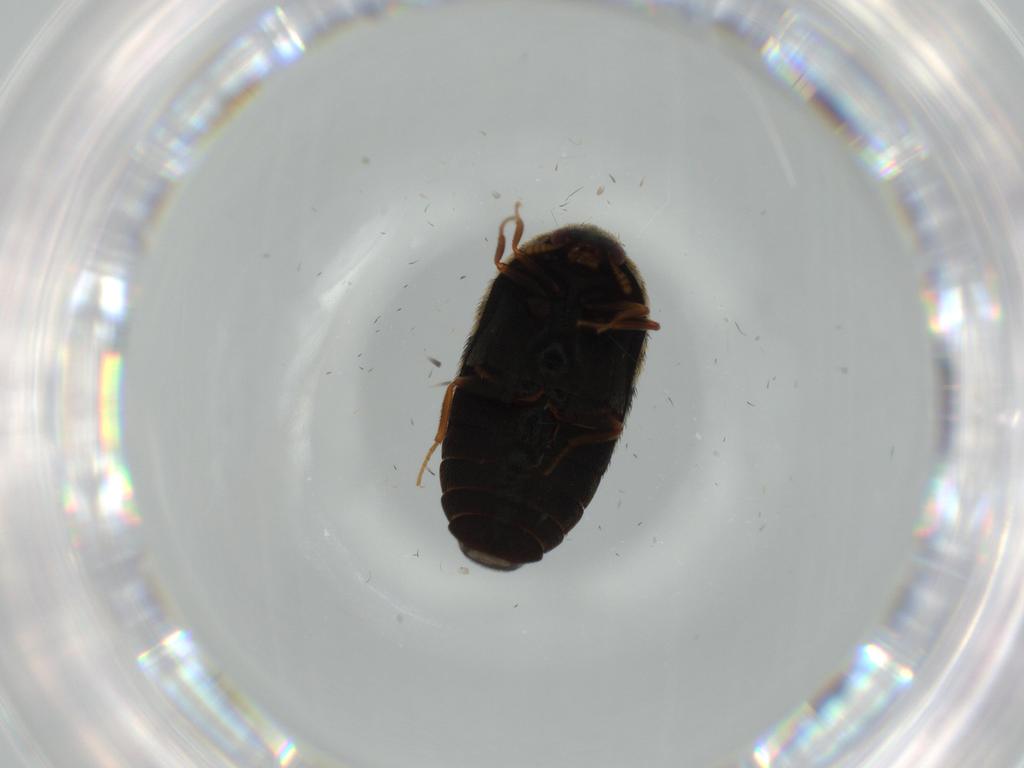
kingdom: Animalia
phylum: Arthropoda
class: Insecta
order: Coleoptera
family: Dermestidae
